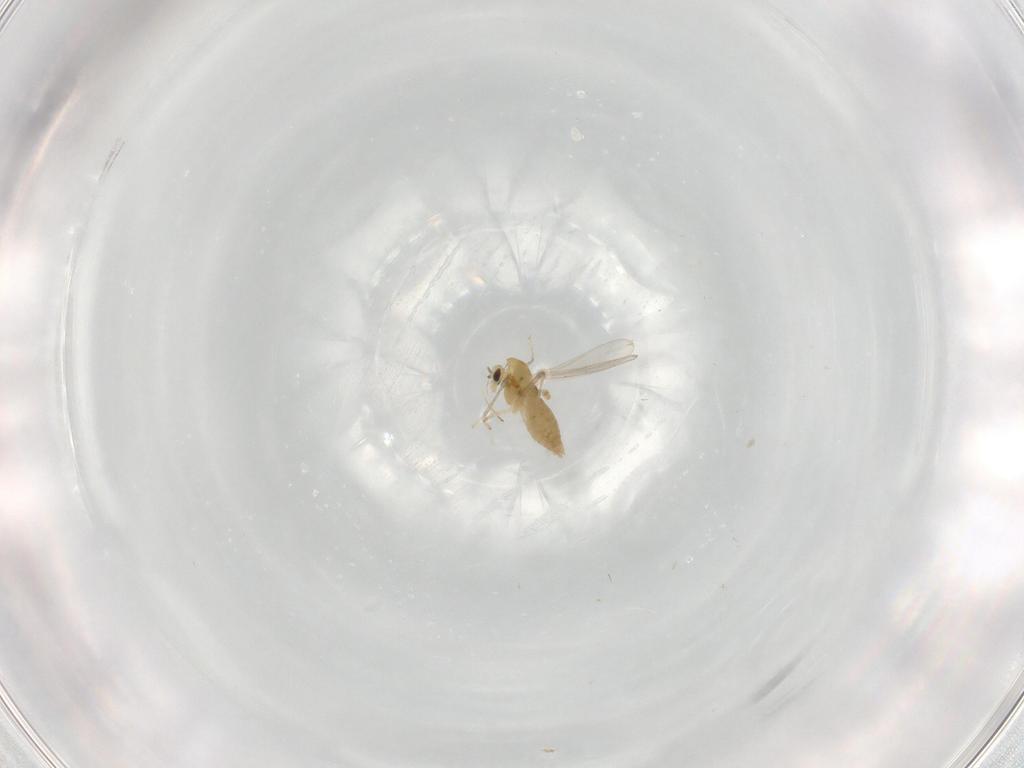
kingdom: Animalia
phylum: Arthropoda
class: Insecta
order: Diptera
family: Chironomidae
